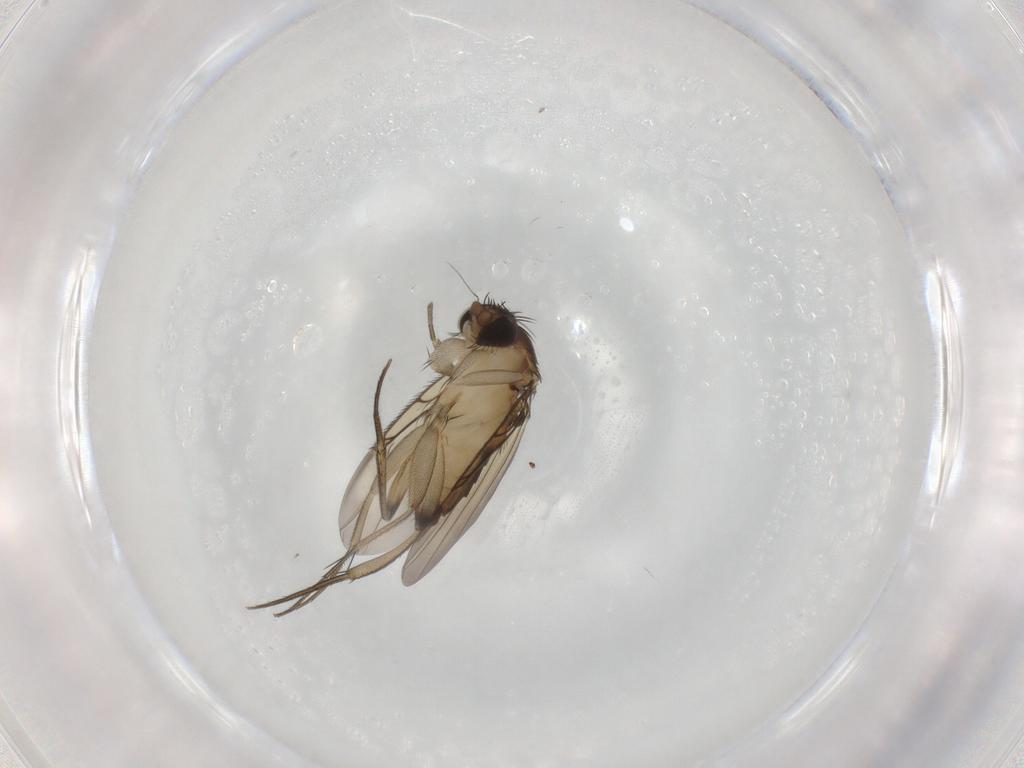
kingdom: Animalia
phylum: Arthropoda
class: Insecta
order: Diptera
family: Phoridae
